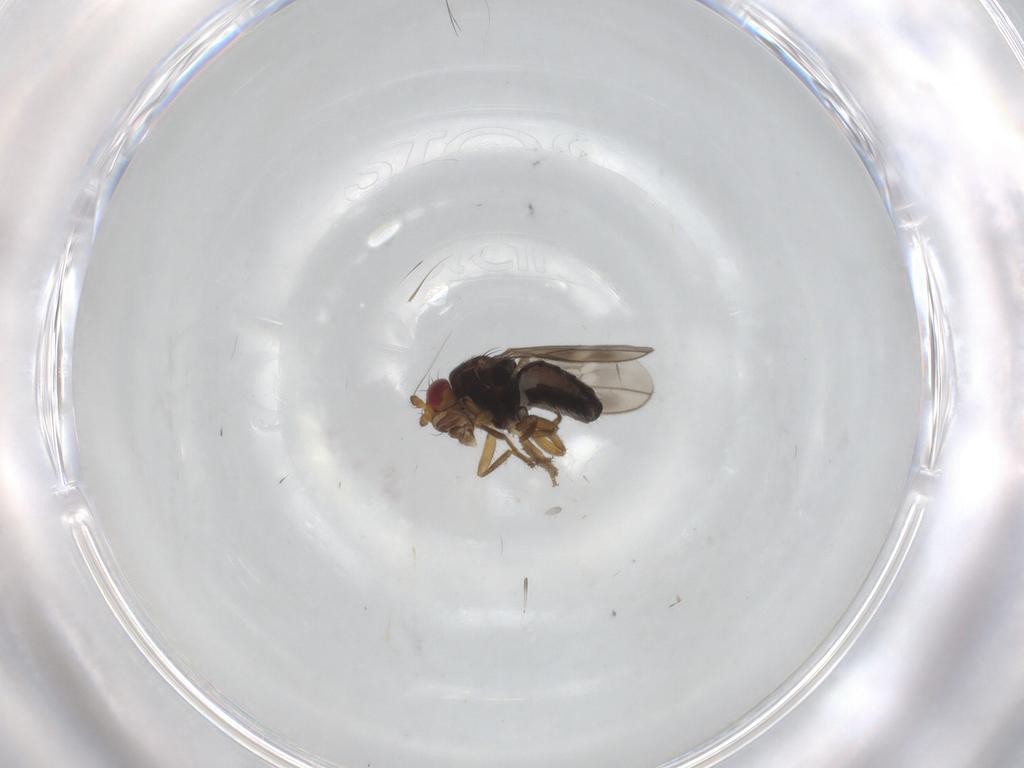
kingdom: Animalia
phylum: Arthropoda
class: Insecta
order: Diptera
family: Sphaeroceridae
